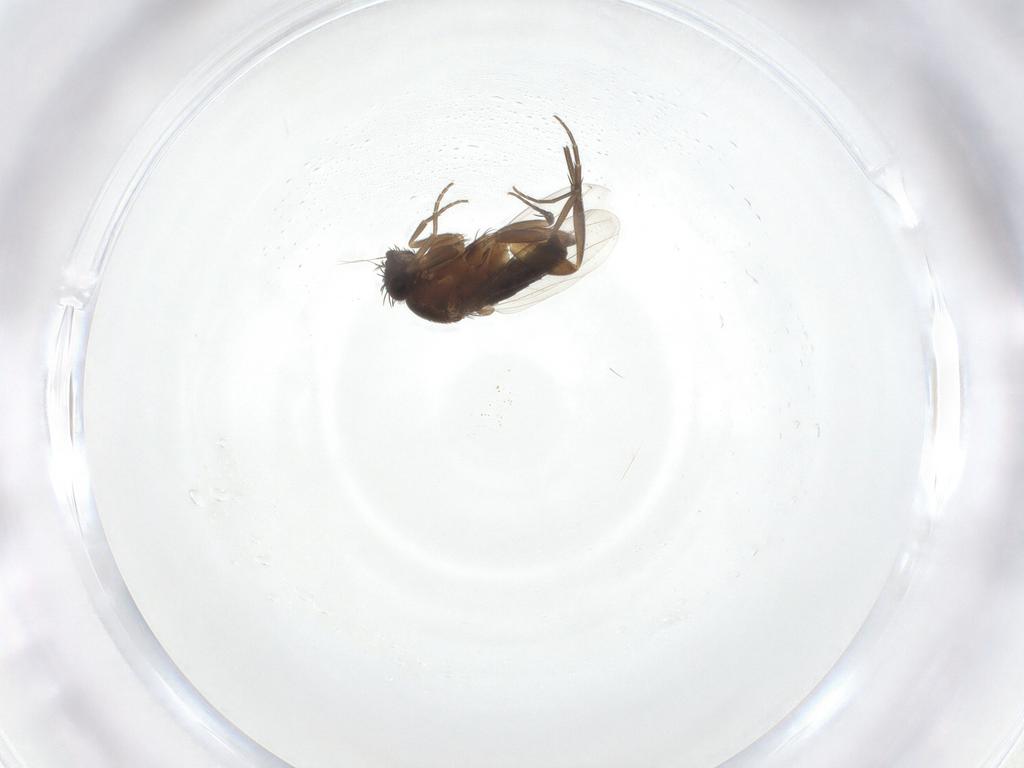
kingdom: Animalia
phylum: Arthropoda
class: Insecta
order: Diptera
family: Phoridae
